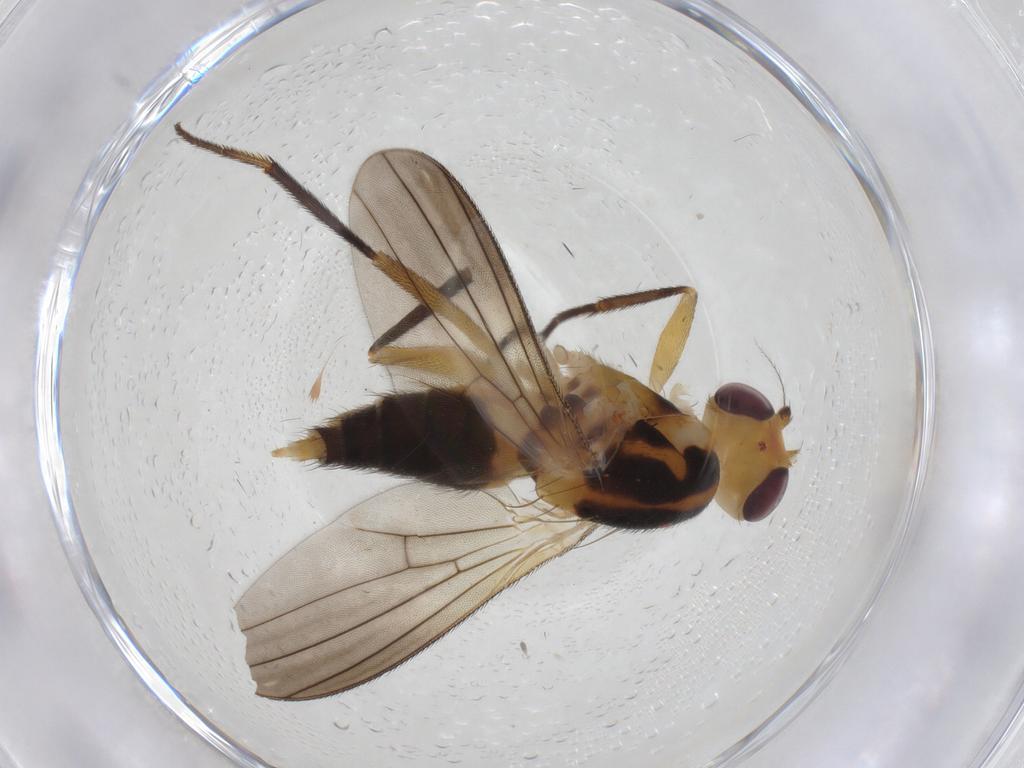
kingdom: Animalia
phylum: Arthropoda
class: Insecta
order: Diptera
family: Clusiidae
